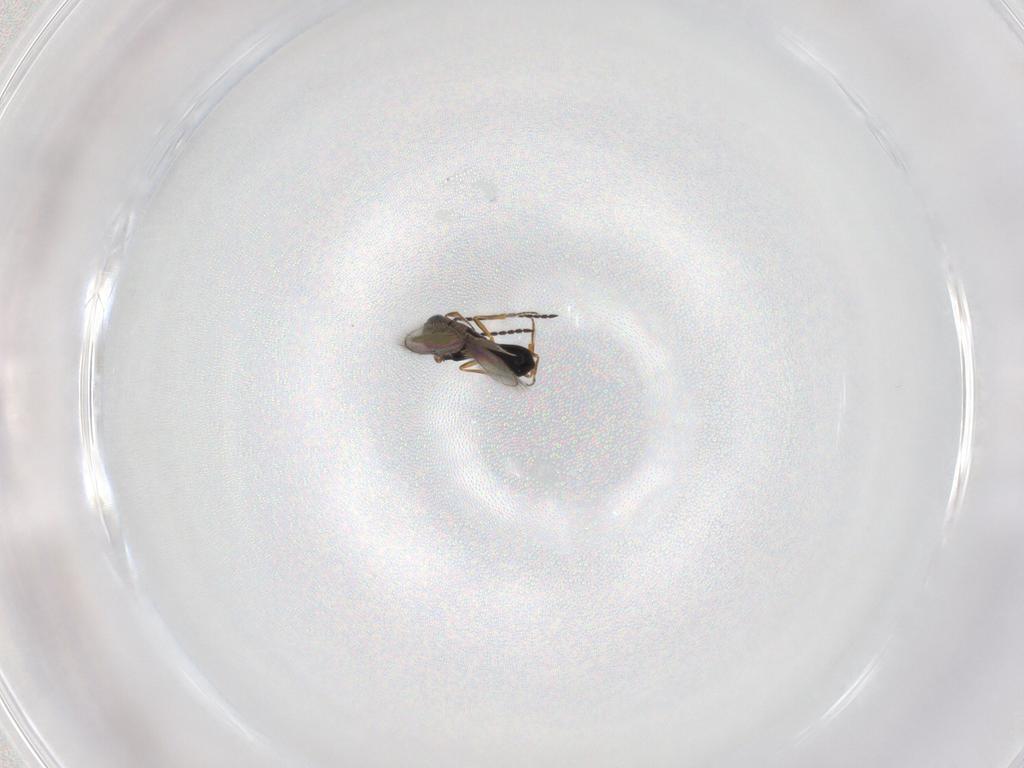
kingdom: Animalia
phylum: Arthropoda
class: Insecta
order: Hymenoptera
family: Scelionidae
